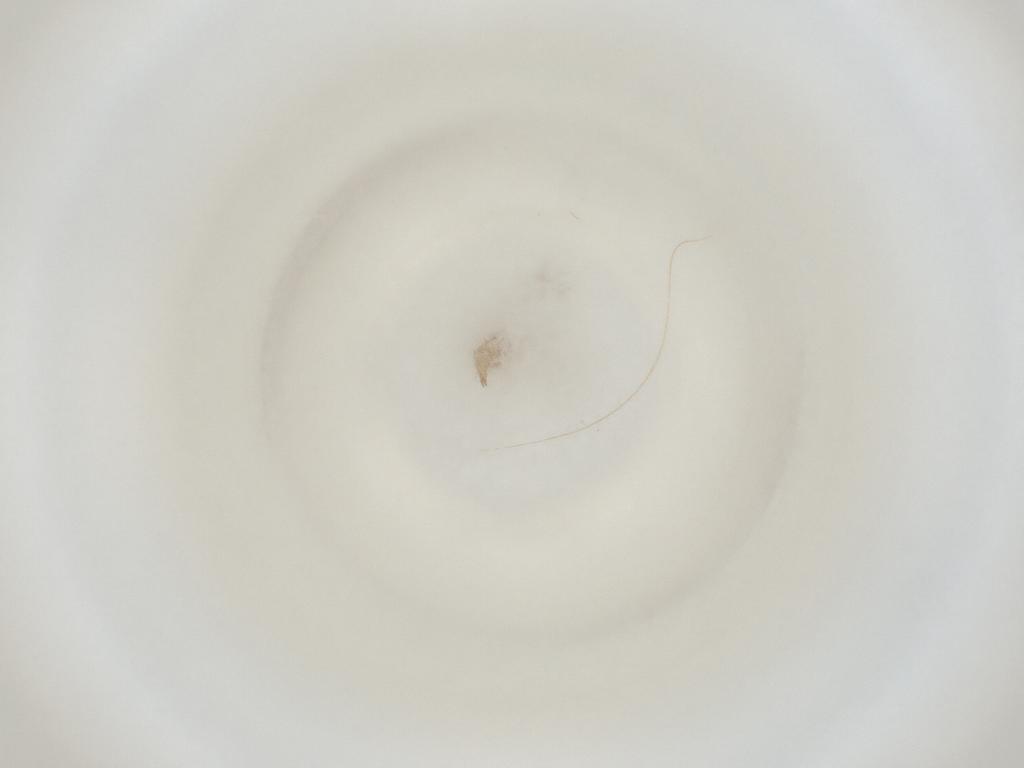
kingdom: Animalia
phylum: Arthropoda
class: Insecta
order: Diptera
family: Cecidomyiidae
